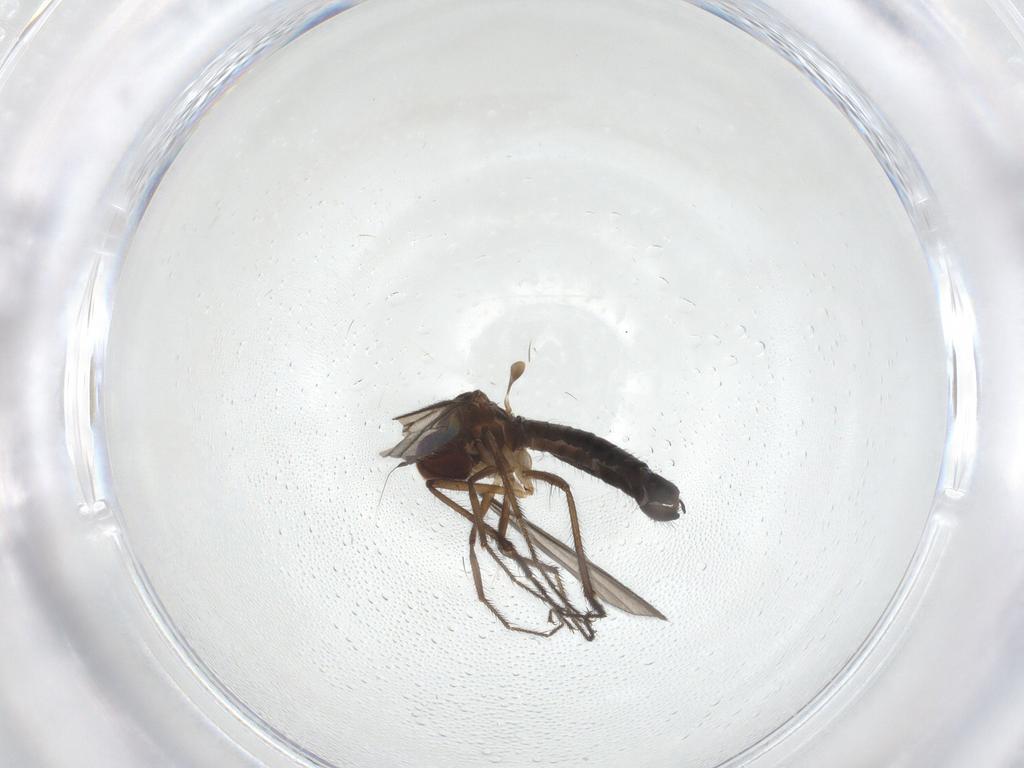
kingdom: Animalia
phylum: Arthropoda
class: Insecta
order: Diptera
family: Hybotidae
